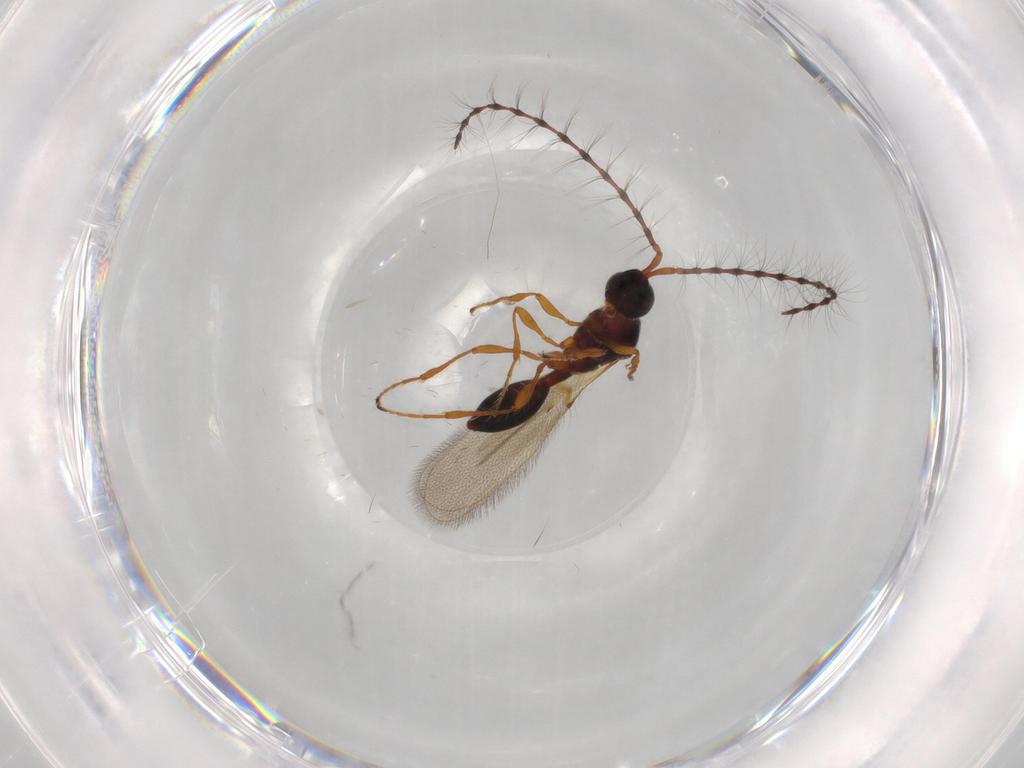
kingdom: Animalia
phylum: Arthropoda
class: Insecta
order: Hymenoptera
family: Diapriidae
